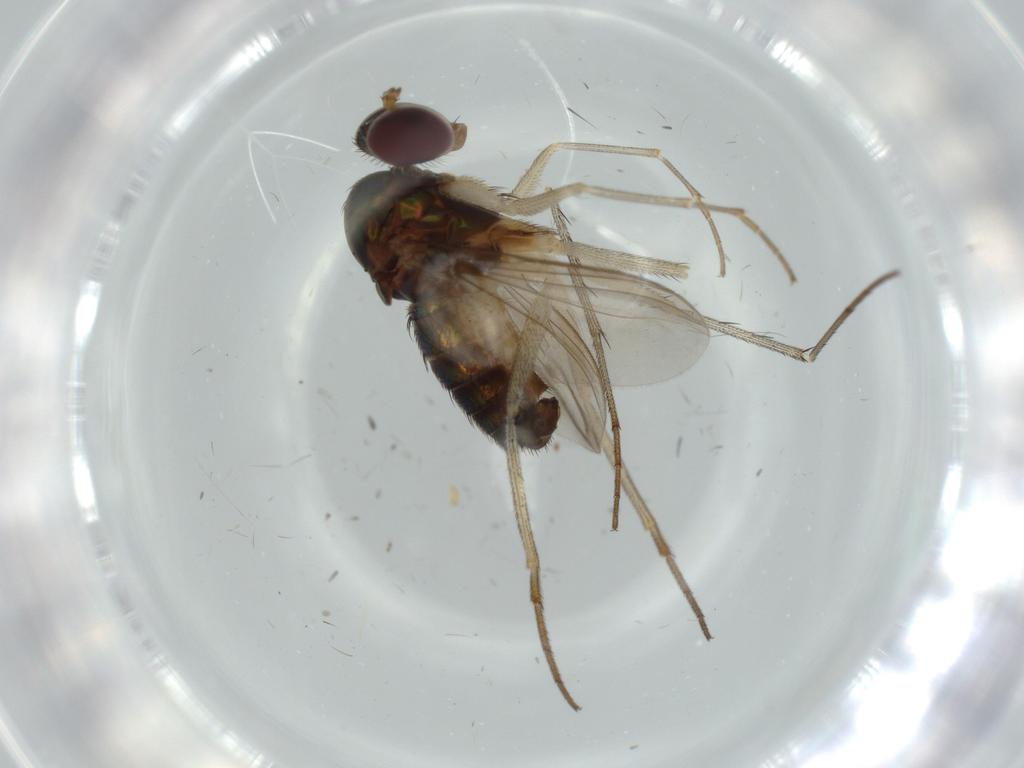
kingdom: Animalia
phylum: Arthropoda
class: Insecta
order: Diptera
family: Dolichopodidae
